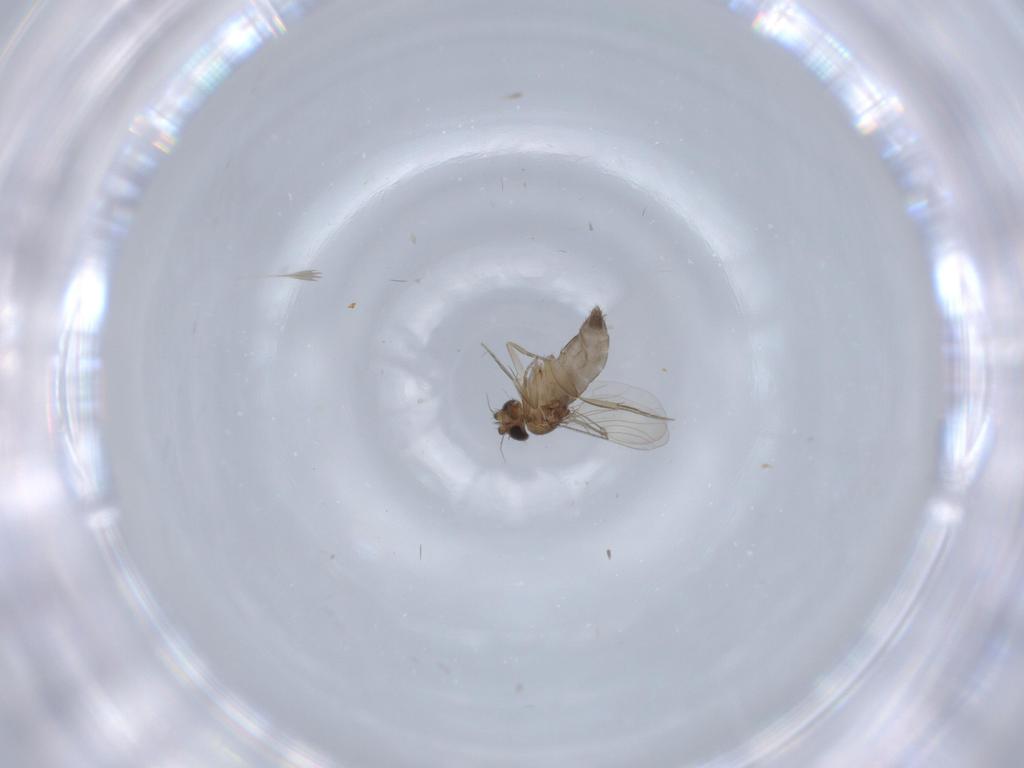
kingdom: Animalia
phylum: Arthropoda
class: Insecta
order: Diptera
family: Phoridae
